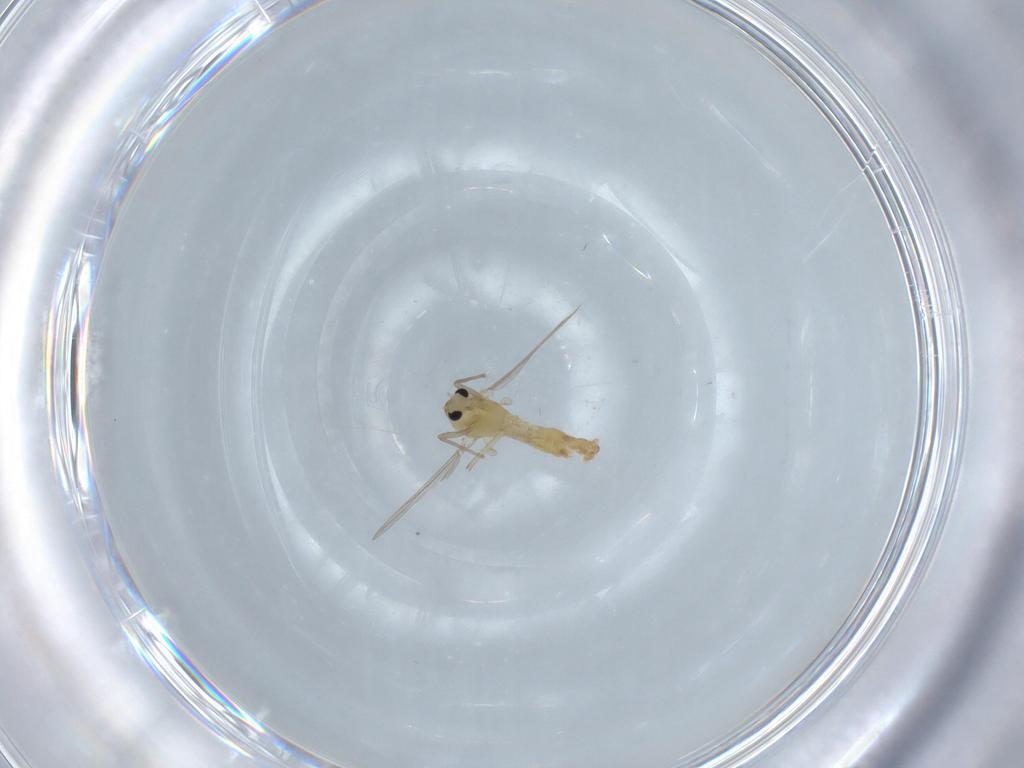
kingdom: Animalia
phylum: Arthropoda
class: Insecta
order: Diptera
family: Chironomidae
